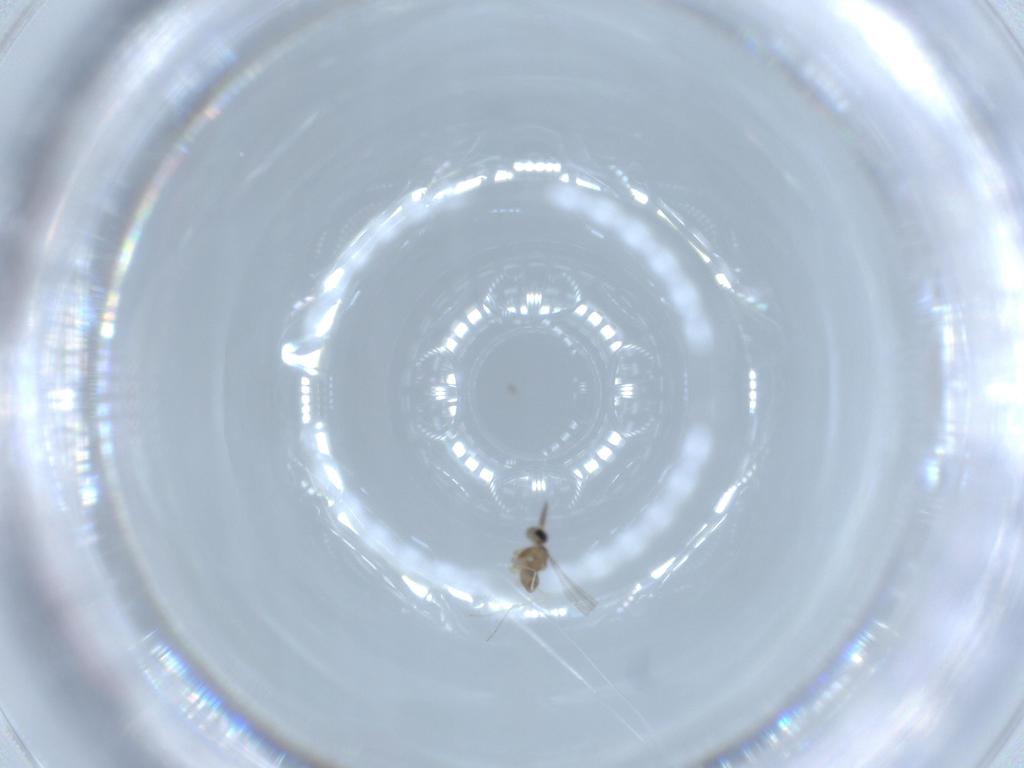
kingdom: Animalia
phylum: Arthropoda
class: Insecta
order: Diptera
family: Cecidomyiidae
